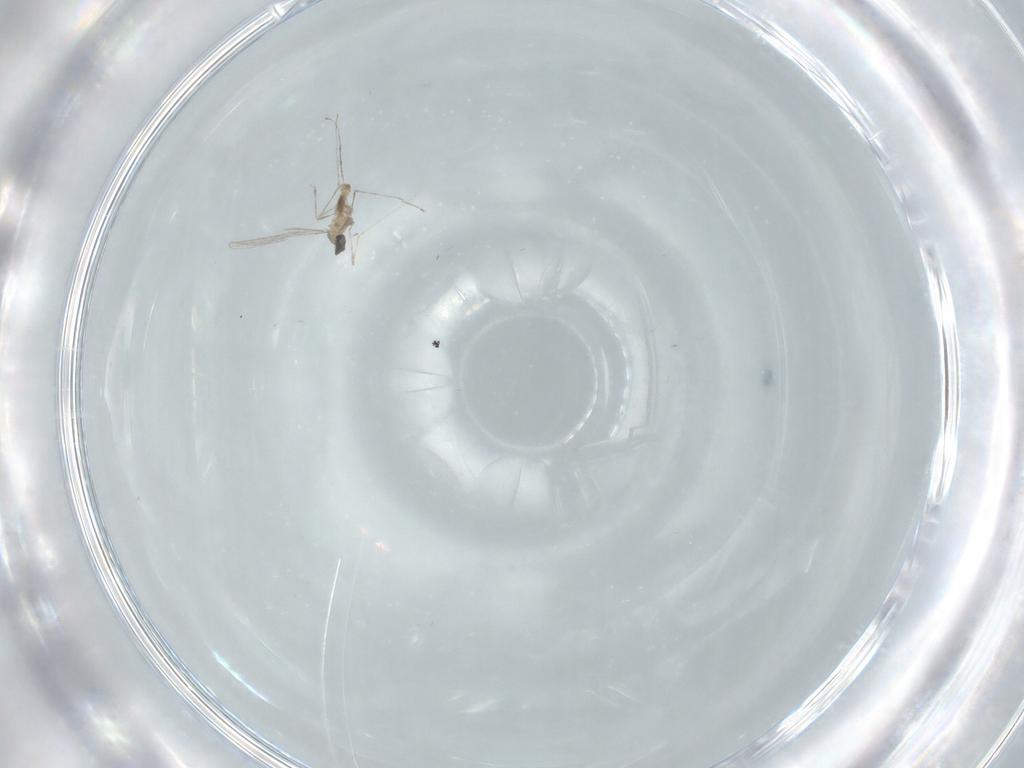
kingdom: Animalia
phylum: Arthropoda
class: Insecta
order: Diptera
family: Cecidomyiidae
